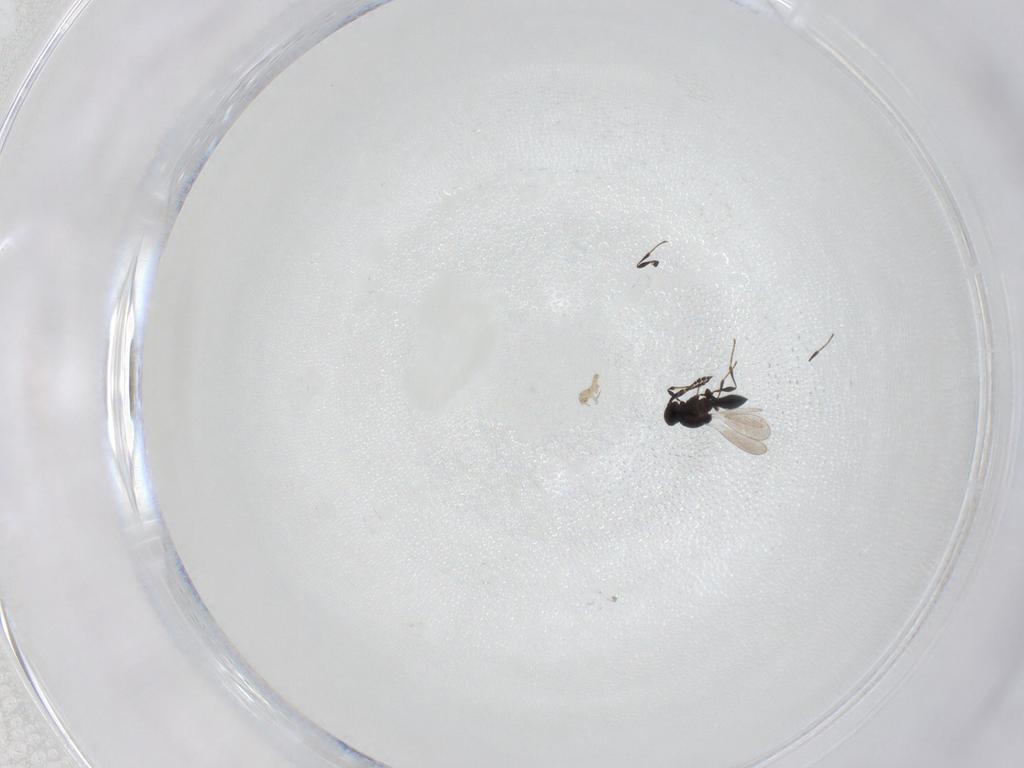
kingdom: Animalia
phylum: Arthropoda
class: Insecta
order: Hymenoptera
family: Platygastridae
